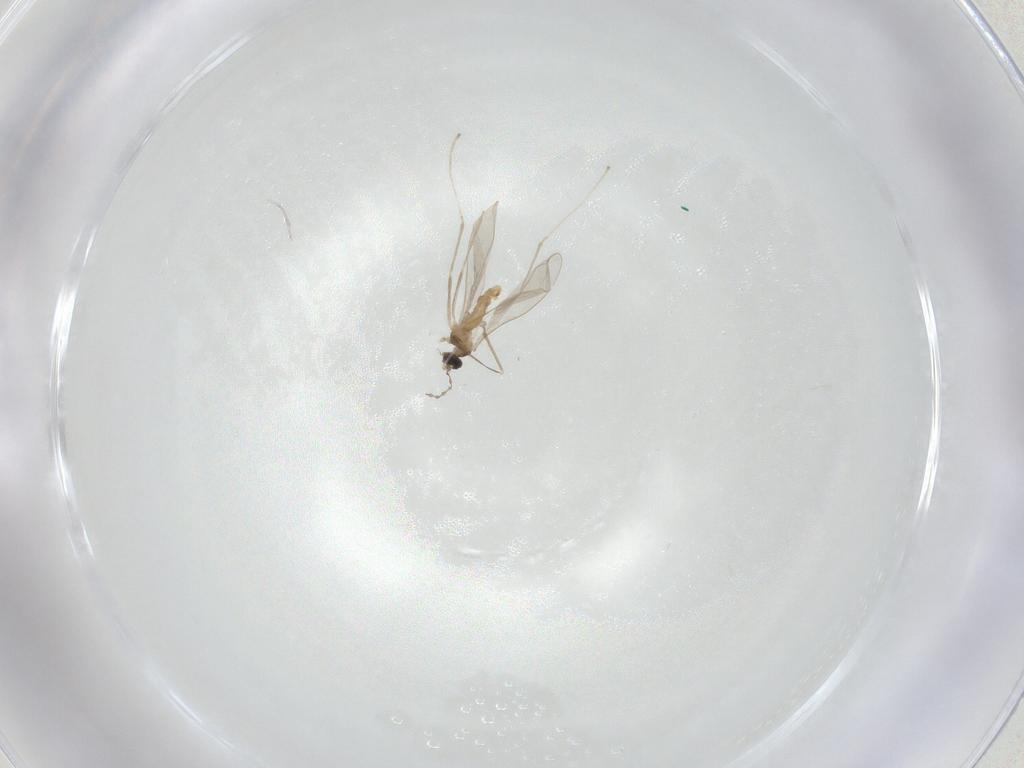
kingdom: Animalia
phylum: Arthropoda
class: Insecta
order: Diptera
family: Cecidomyiidae
